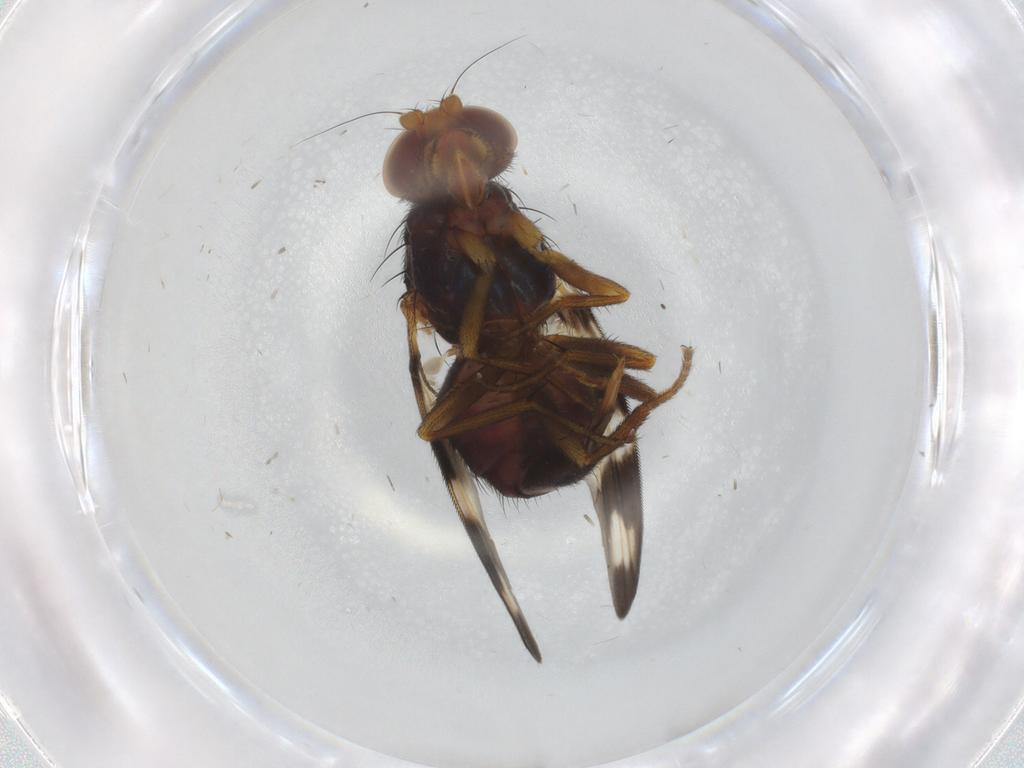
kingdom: Animalia
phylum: Arthropoda
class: Insecta
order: Diptera
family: Ulidiidae
